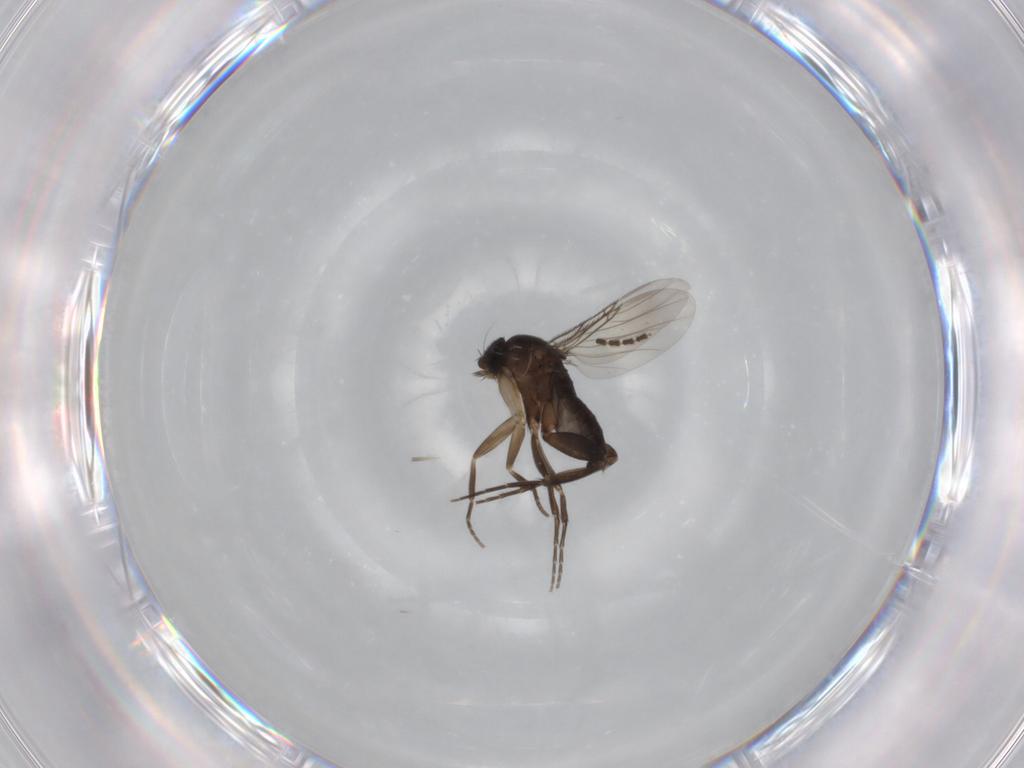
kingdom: Animalia
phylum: Arthropoda
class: Insecta
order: Diptera
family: Phoridae
